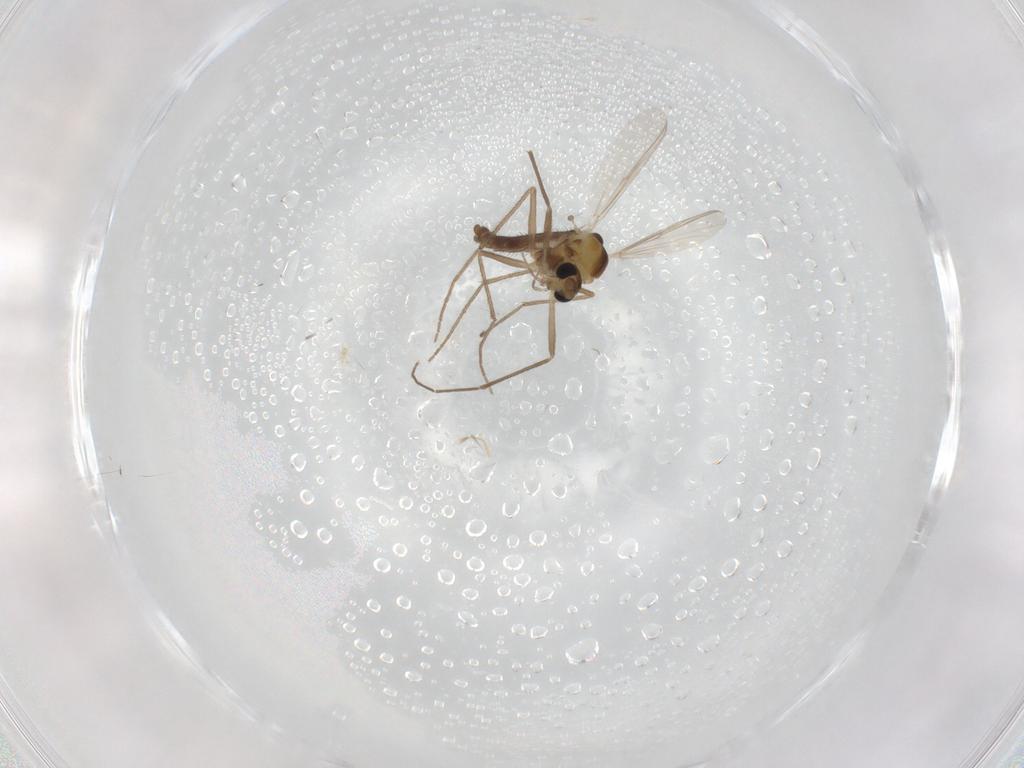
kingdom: Animalia
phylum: Arthropoda
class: Insecta
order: Diptera
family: Chironomidae
